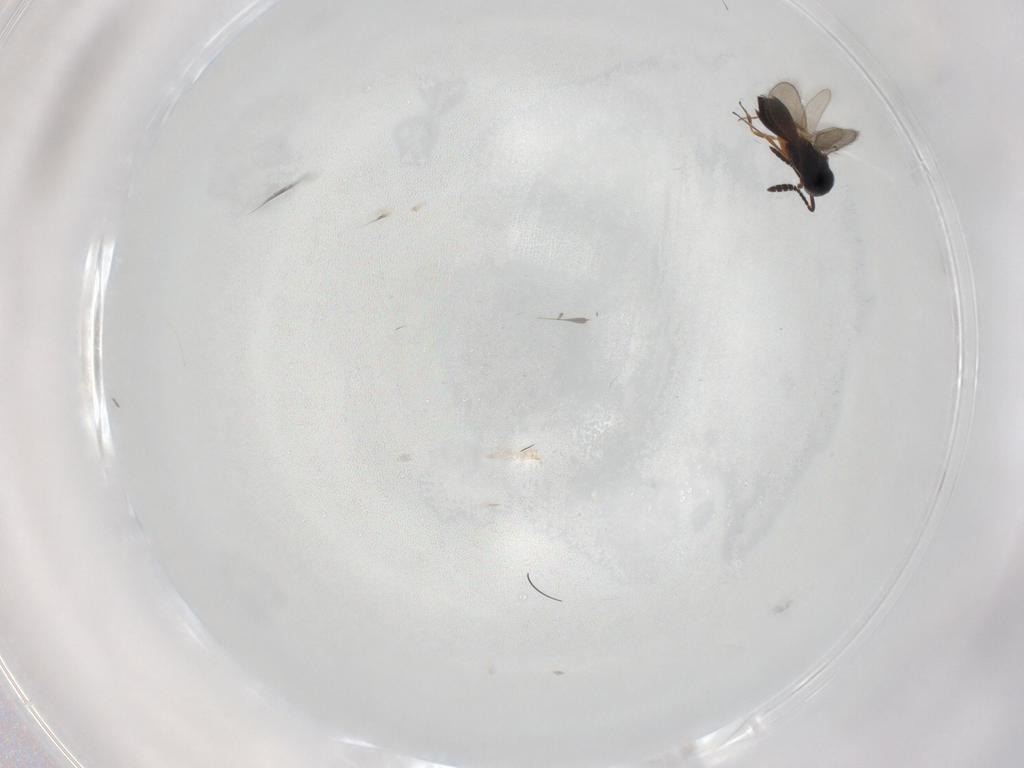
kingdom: Animalia
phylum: Arthropoda
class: Insecta
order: Hymenoptera
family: Scelionidae
